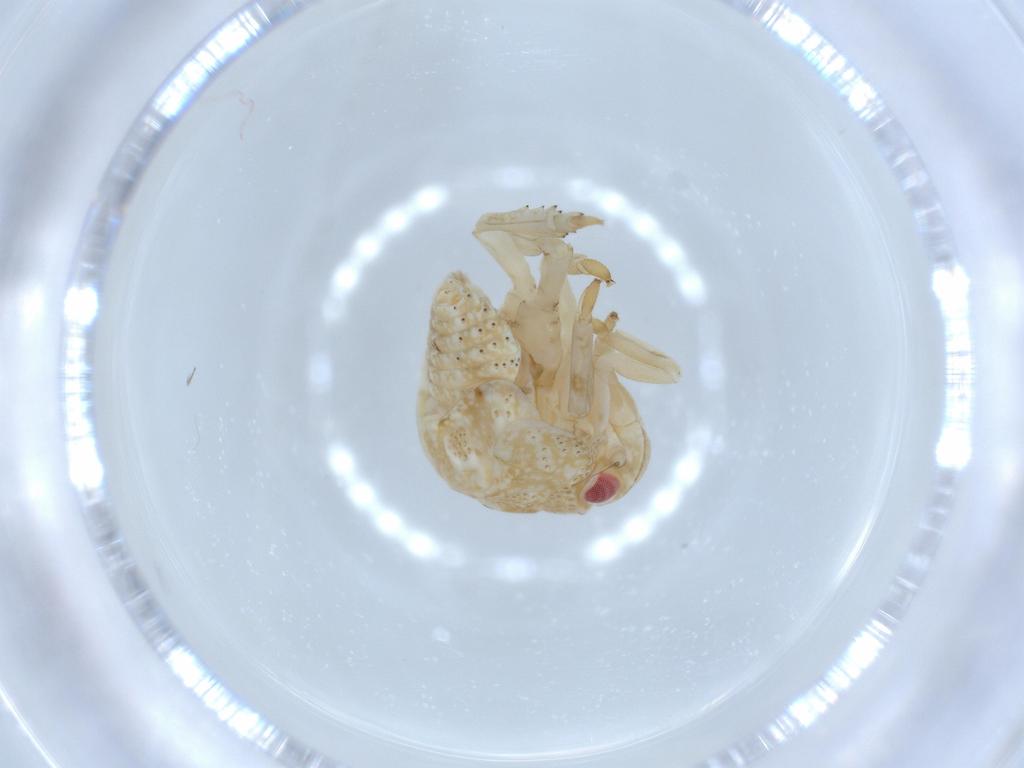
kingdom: Animalia
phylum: Arthropoda
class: Insecta
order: Hemiptera
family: Acanaloniidae
